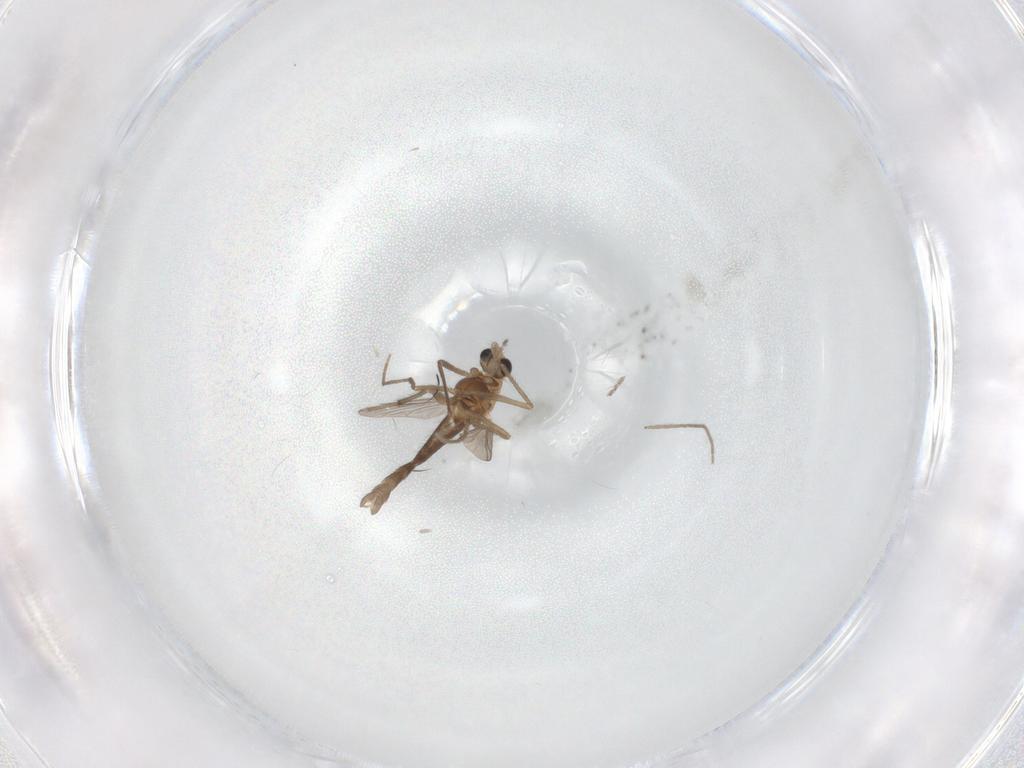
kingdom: Animalia
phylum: Arthropoda
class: Insecta
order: Diptera
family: Chironomidae
